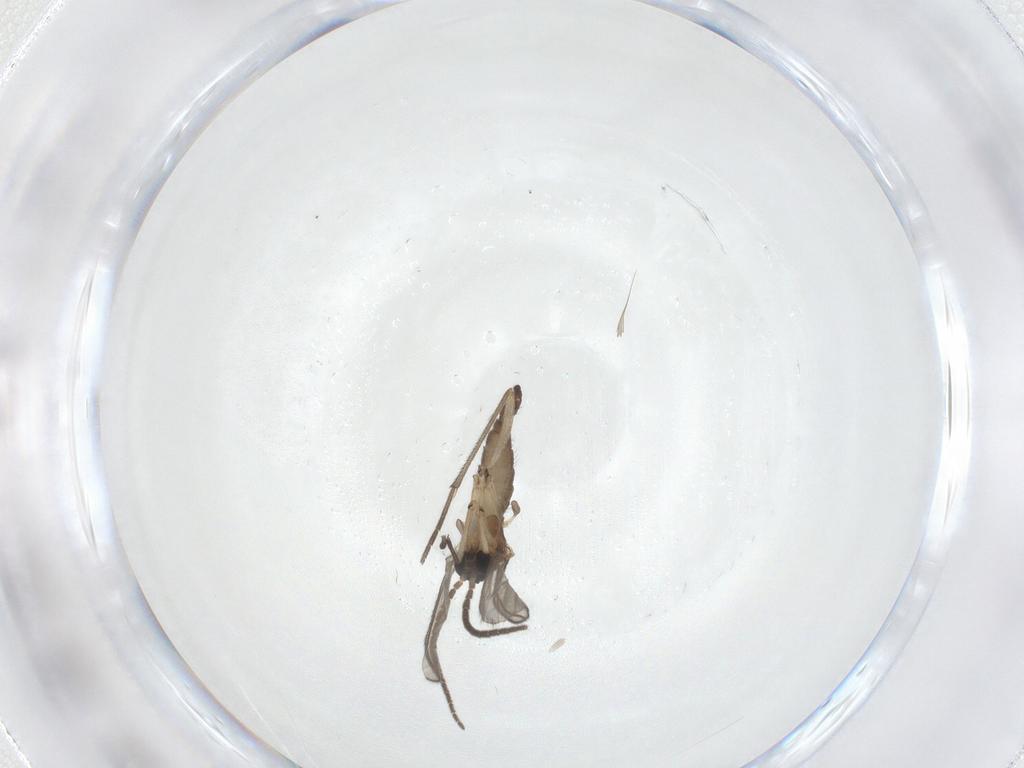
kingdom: Animalia
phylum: Arthropoda
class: Insecta
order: Diptera
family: Sciaridae
